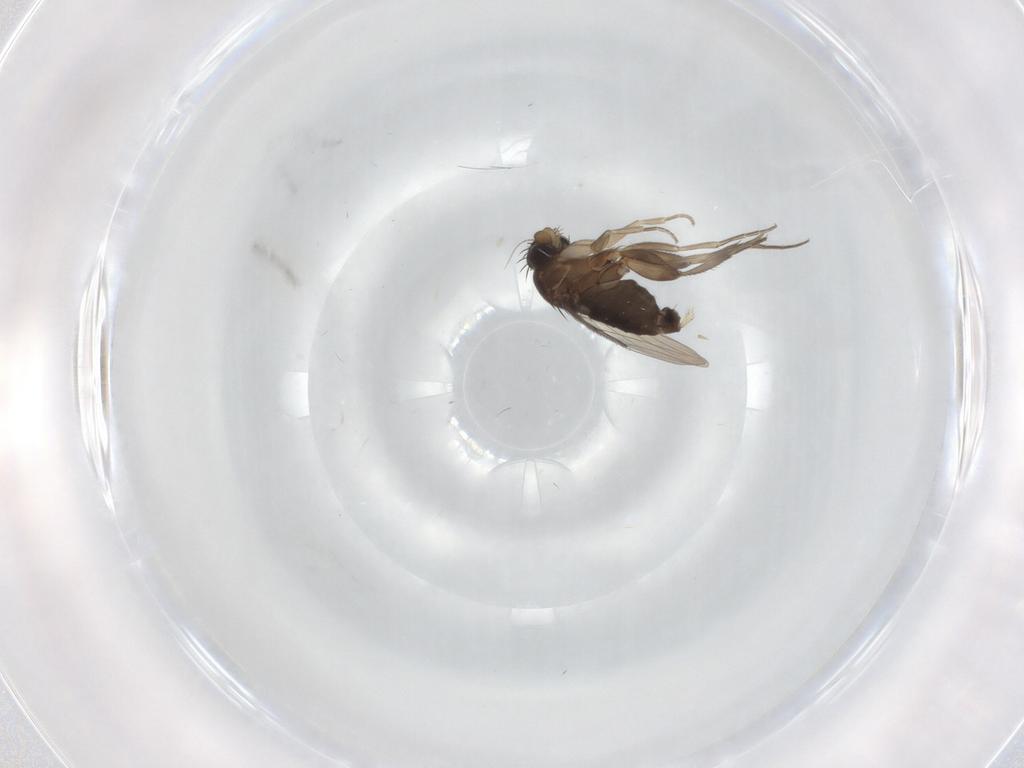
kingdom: Animalia
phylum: Arthropoda
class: Insecta
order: Diptera
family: Phoridae
